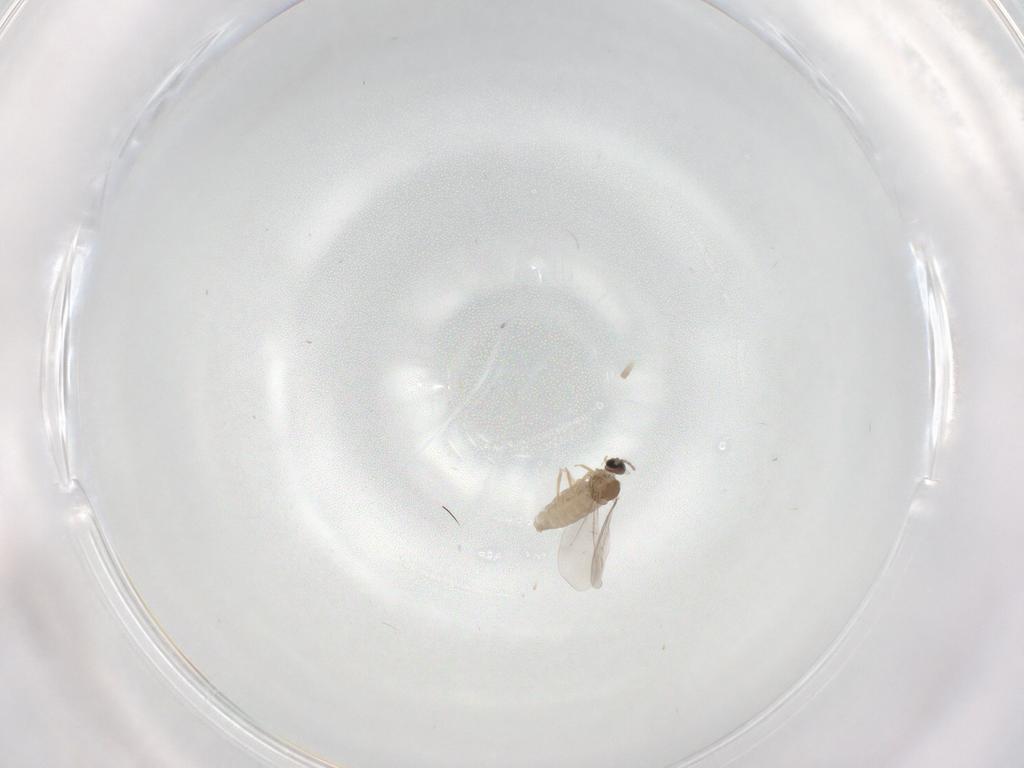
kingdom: Animalia
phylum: Arthropoda
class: Insecta
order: Diptera
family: Cecidomyiidae
